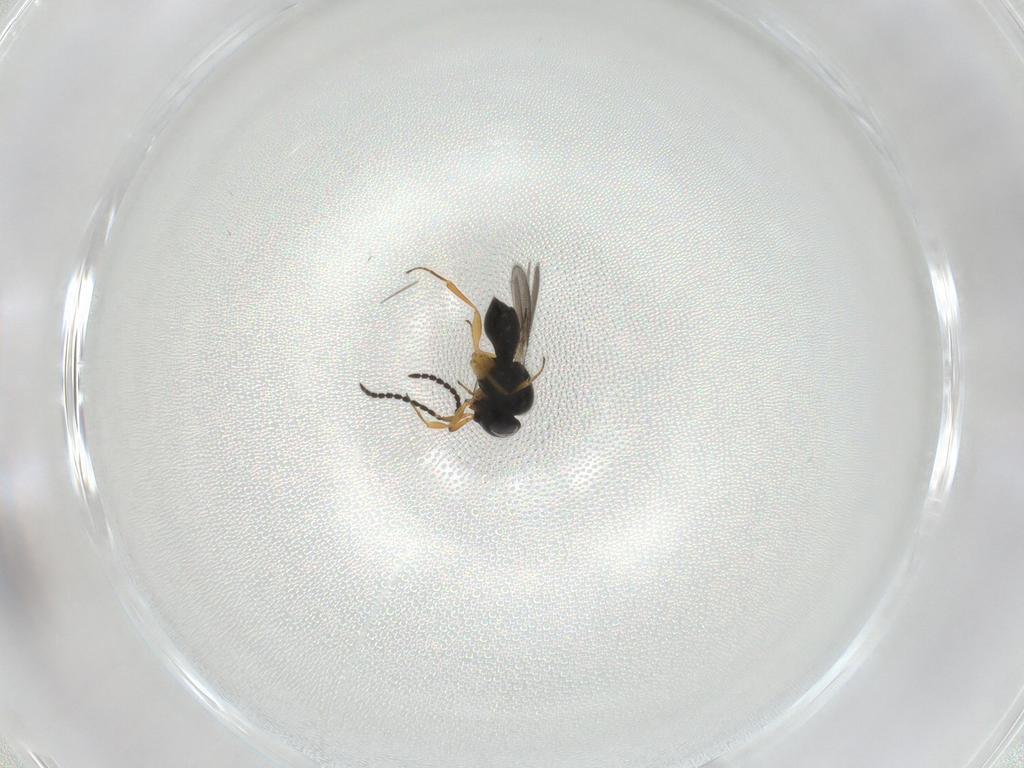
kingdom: Animalia
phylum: Arthropoda
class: Insecta
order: Hymenoptera
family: Scelionidae
